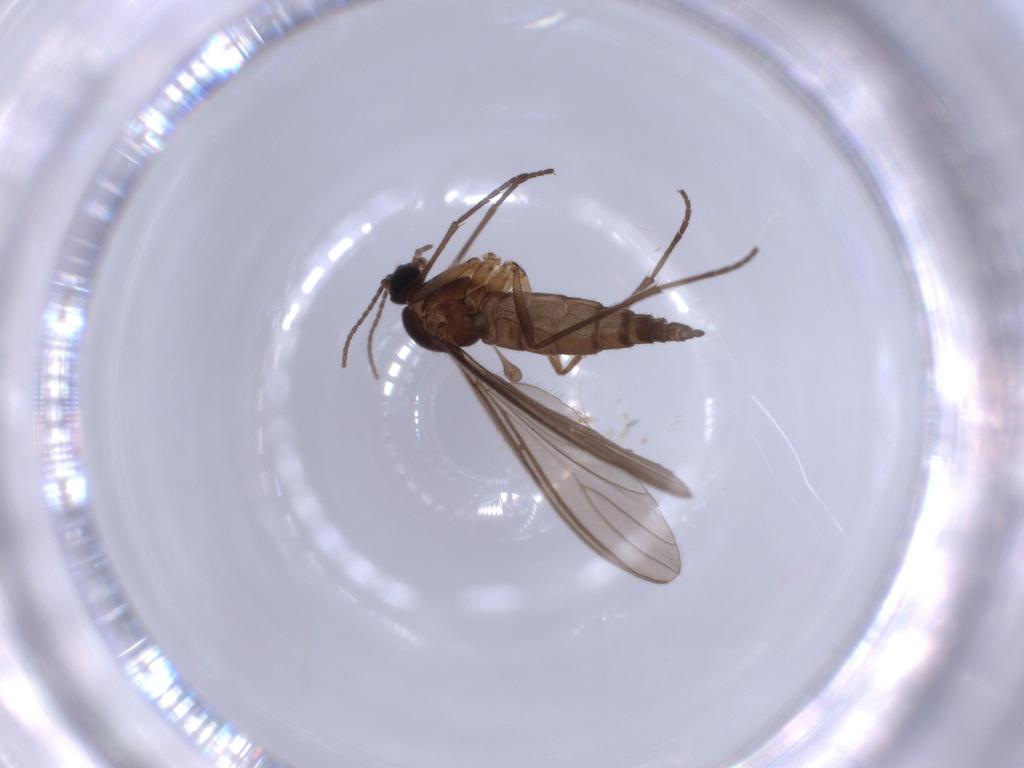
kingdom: Animalia
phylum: Arthropoda
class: Insecta
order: Diptera
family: Sciaridae
